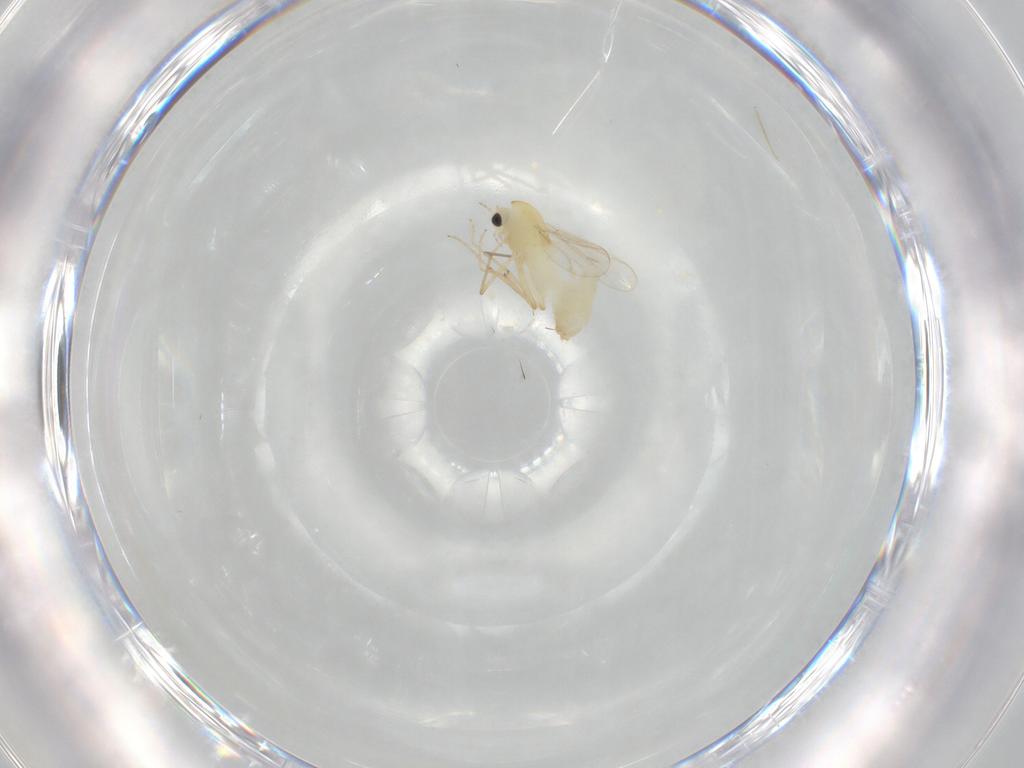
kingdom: Animalia
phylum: Arthropoda
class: Insecta
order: Diptera
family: Chironomidae
